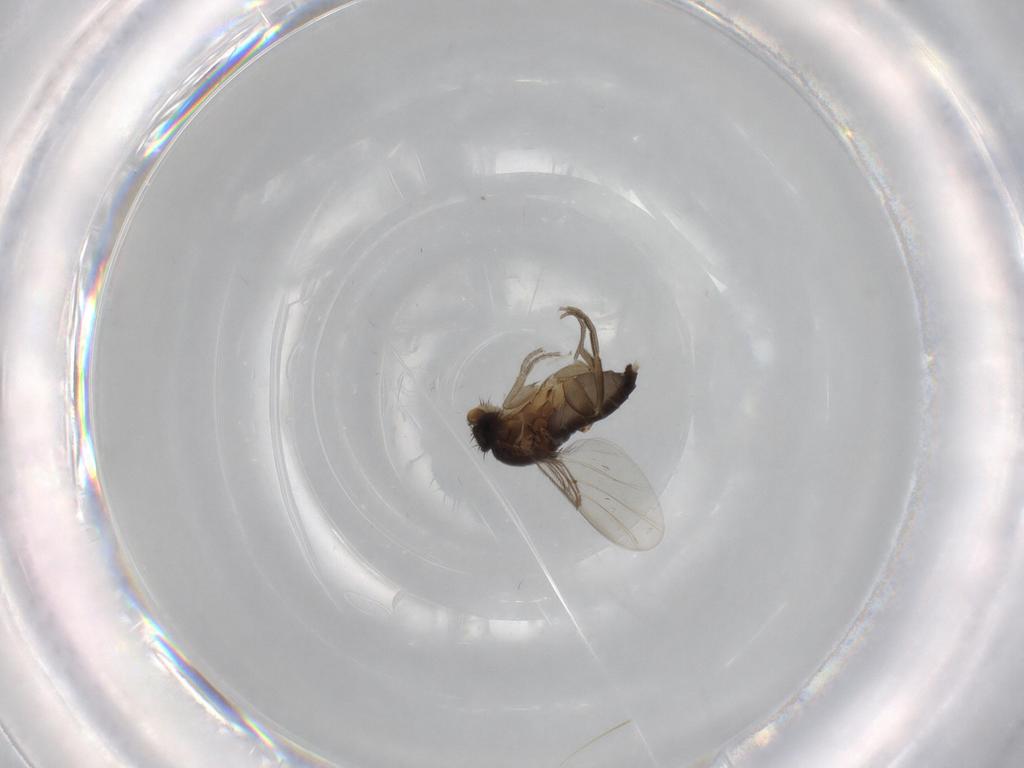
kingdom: Animalia
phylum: Arthropoda
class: Insecta
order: Diptera
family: Phoridae
